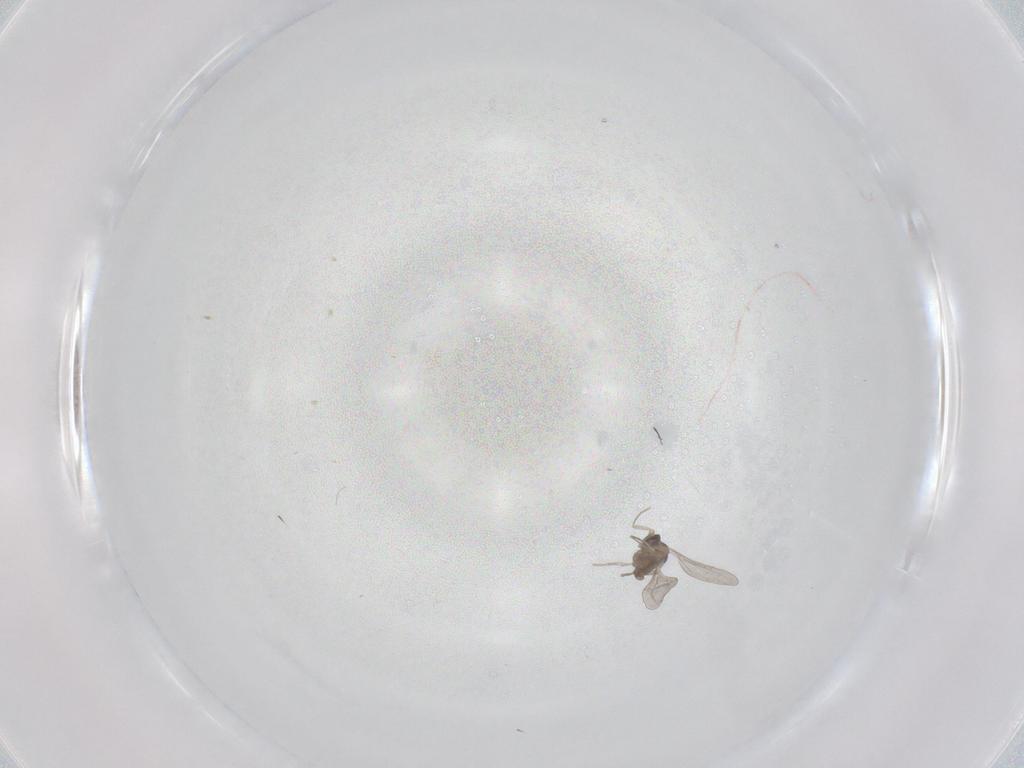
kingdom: Animalia
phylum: Arthropoda
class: Insecta
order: Diptera
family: Cecidomyiidae
